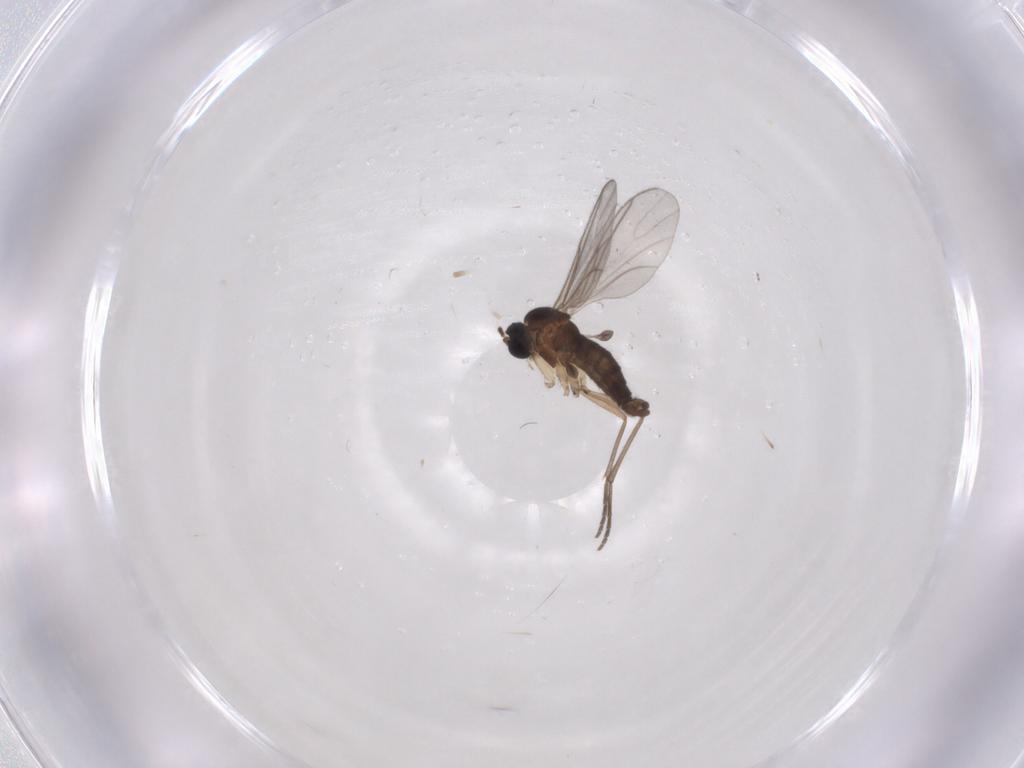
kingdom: Animalia
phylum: Arthropoda
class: Insecta
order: Diptera
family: Sciaridae
